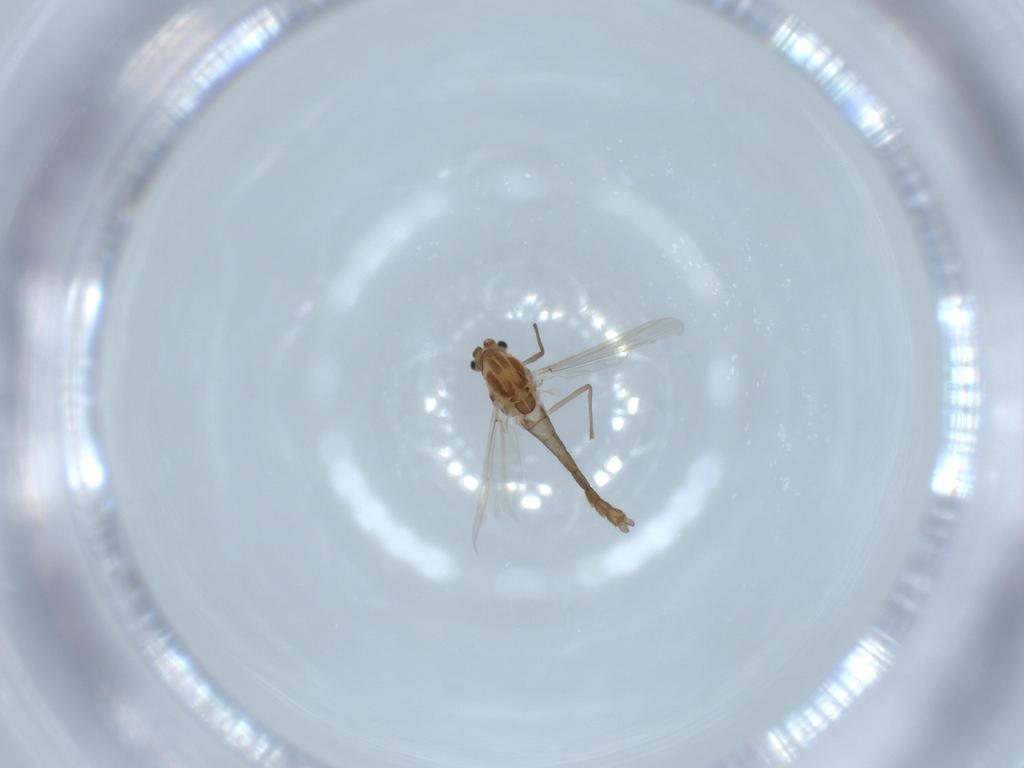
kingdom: Animalia
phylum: Arthropoda
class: Insecta
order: Diptera
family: Chironomidae
